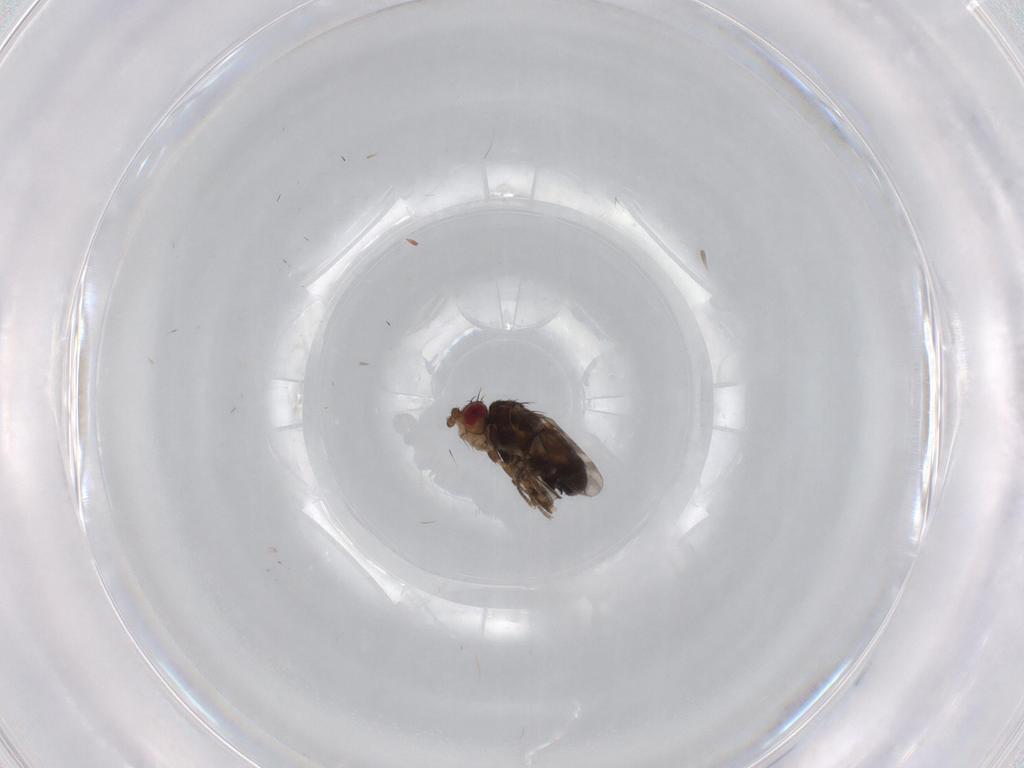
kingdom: Animalia
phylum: Arthropoda
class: Insecta
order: Diptera
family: Sphaeroceridae
